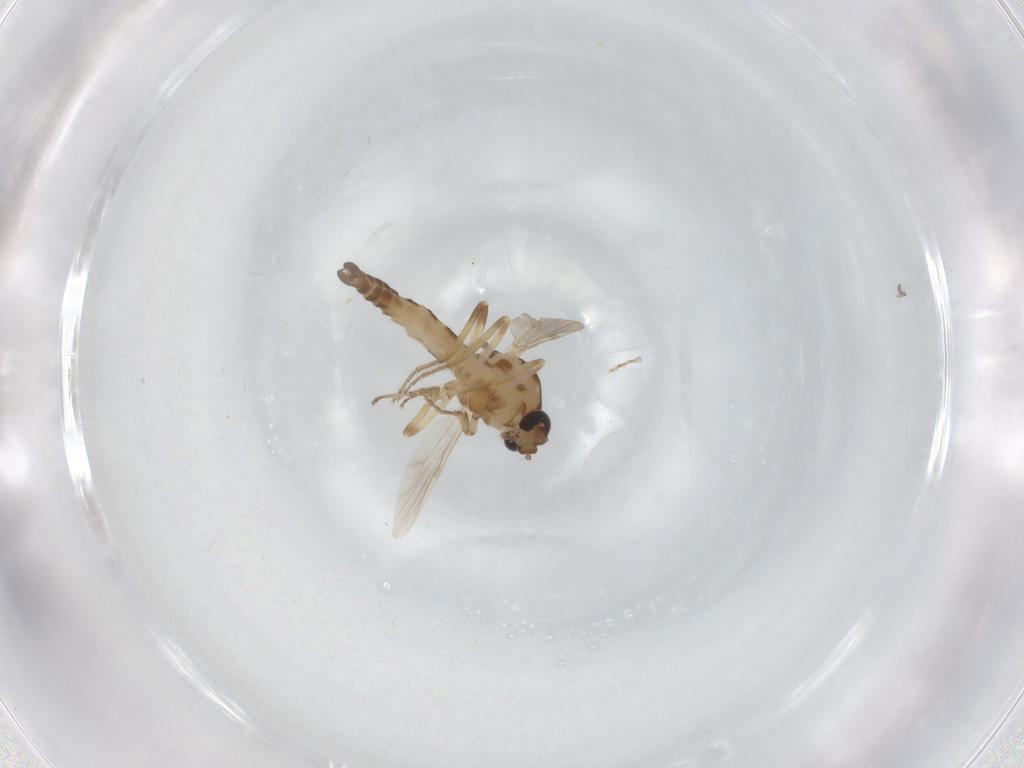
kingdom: Animalia
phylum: Arthropoda
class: Insecta
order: Diptera
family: Ceratopogonidae
